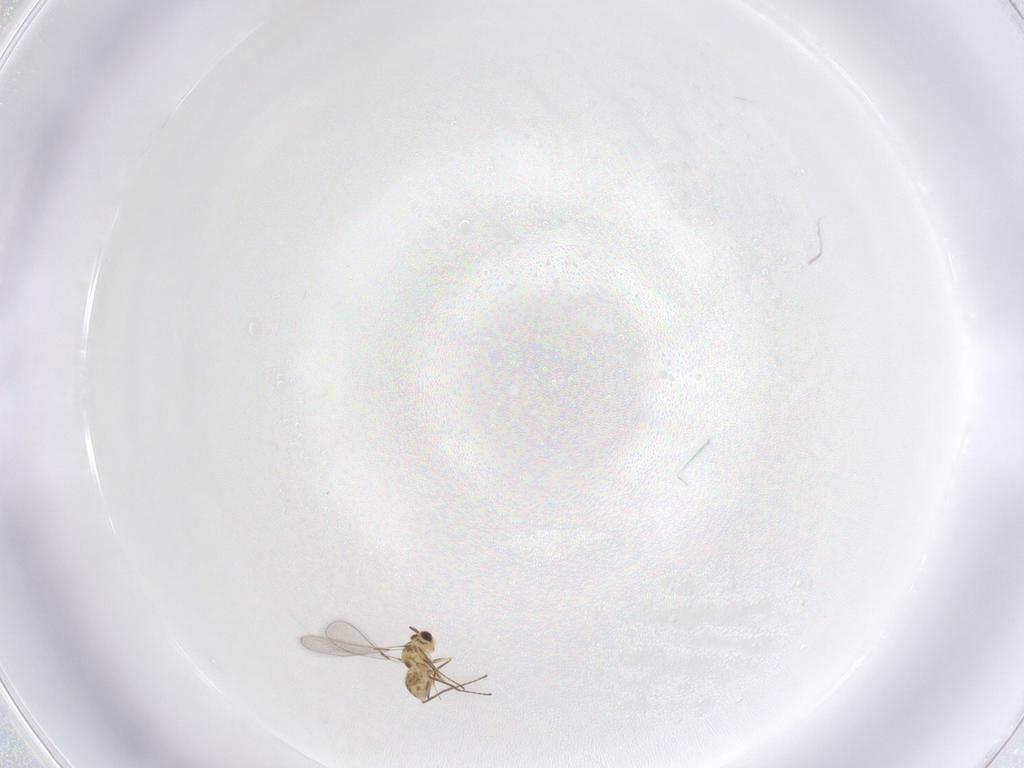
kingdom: Animalia
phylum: Arthropoda
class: Insecta
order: Hymenoptera
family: Mymaridae
